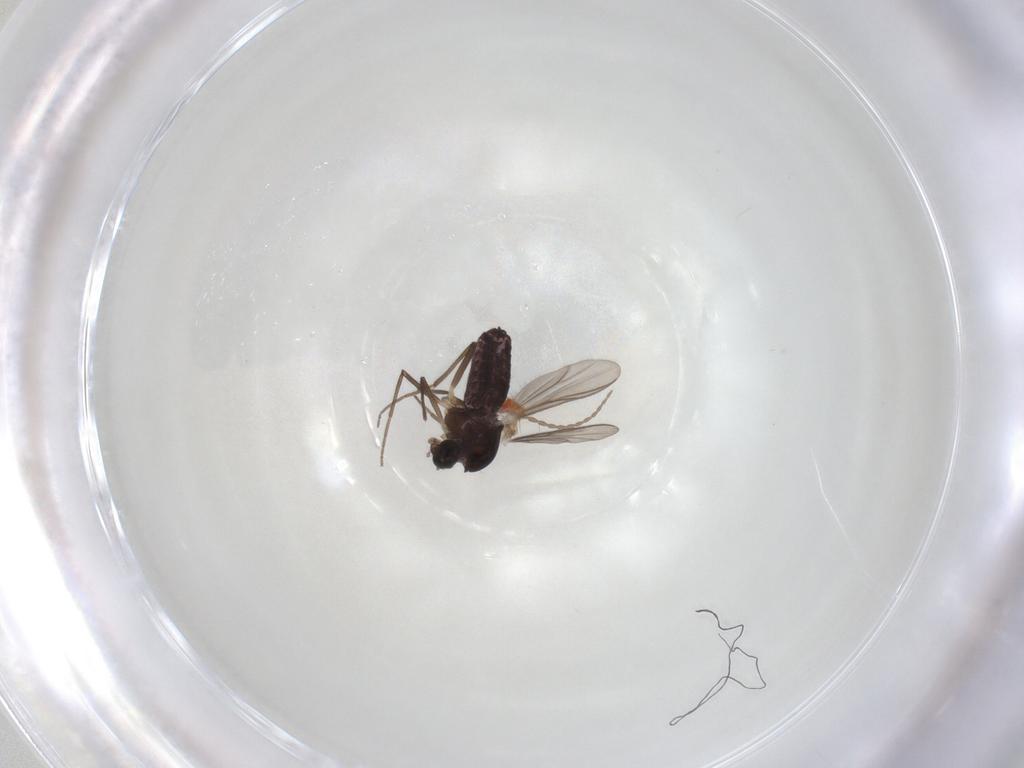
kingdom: Animalia
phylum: Arthropoda
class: Insecta
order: Diptera
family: Chironomidae
